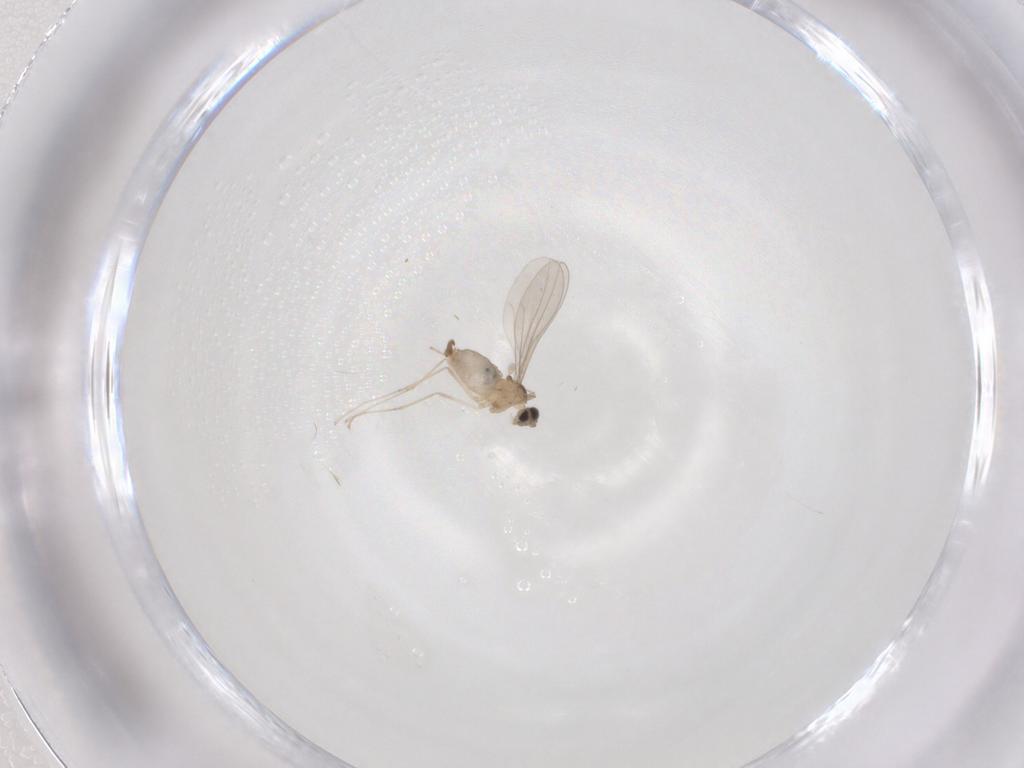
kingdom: Animalia
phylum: Arthropoda
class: Insecta
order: Diptera
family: Cecidomyiidae
